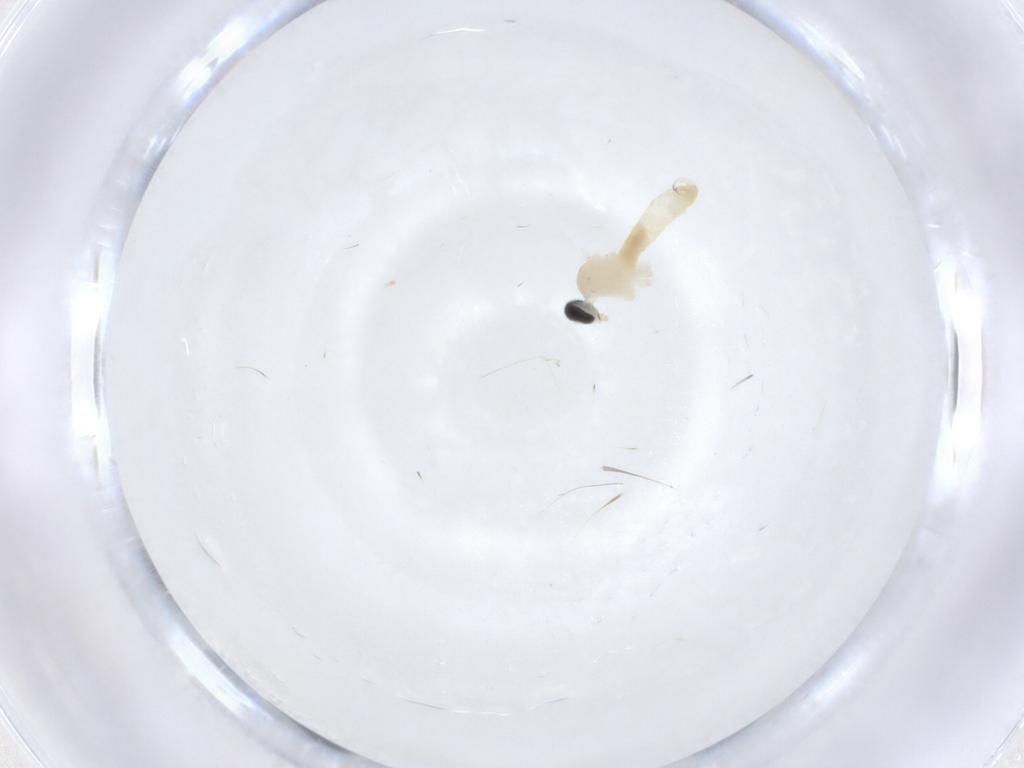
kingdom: Animalia
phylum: Arthropoda
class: Insecta
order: Diptera
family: Cecidomyiidae
